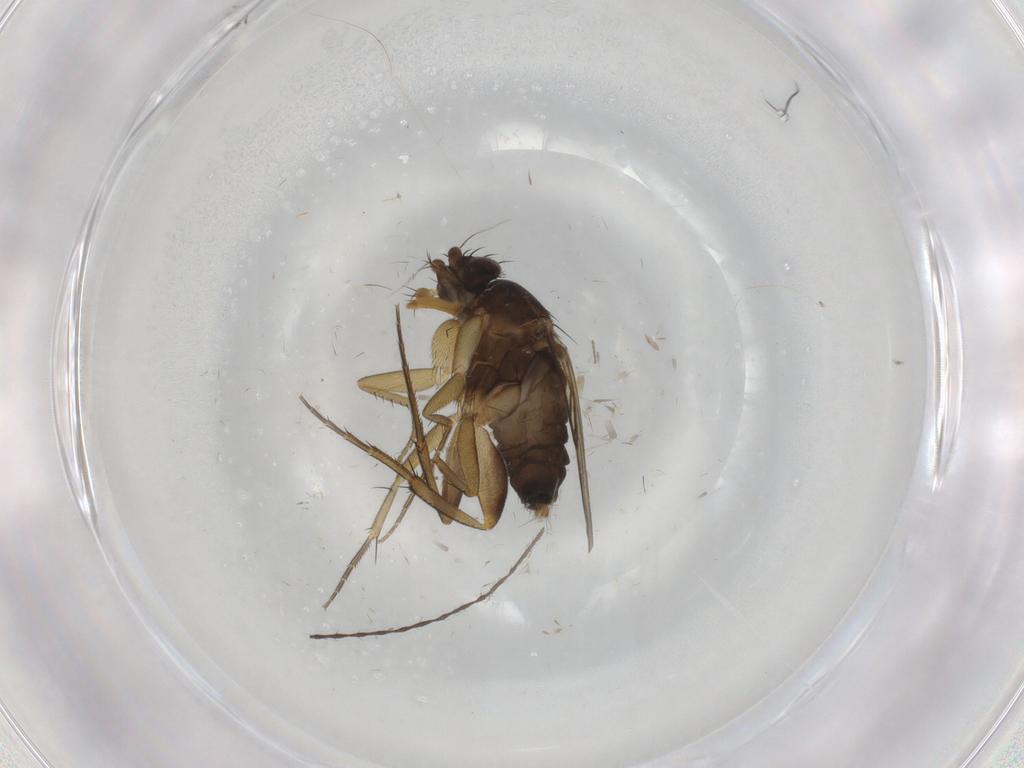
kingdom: Animalia
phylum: Arthropoda
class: Insecta
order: Diptera
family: Phoridae
